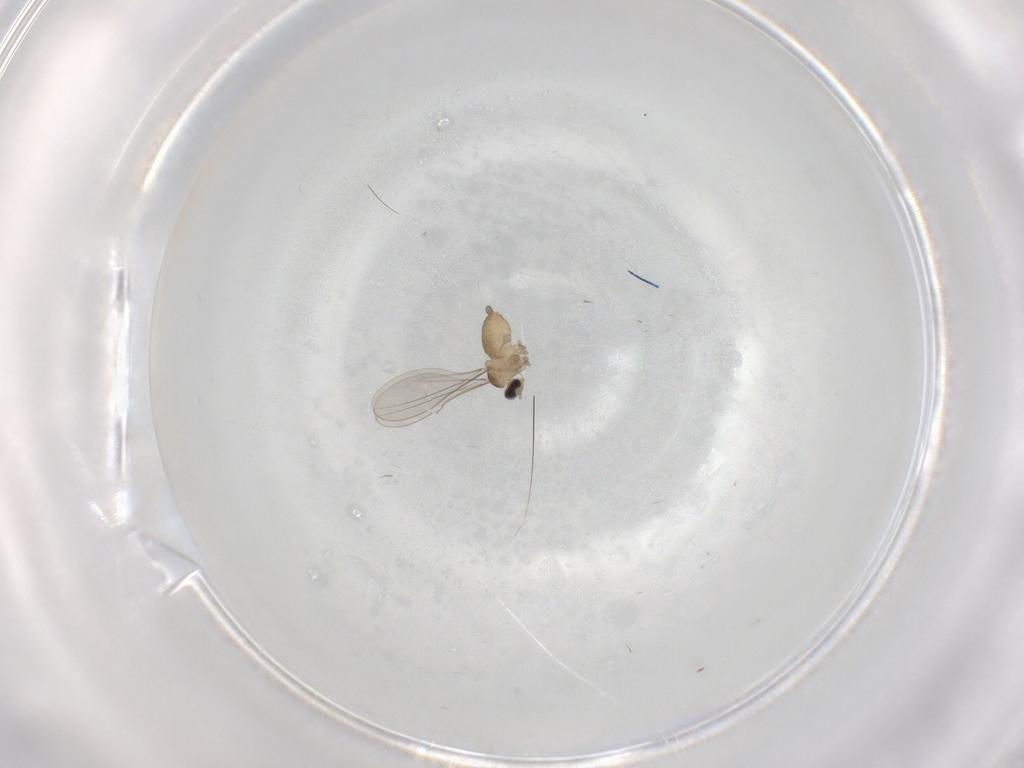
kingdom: Animalia
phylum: Arthropoda
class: Insecta
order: Diptera
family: Cecidomyiidae
